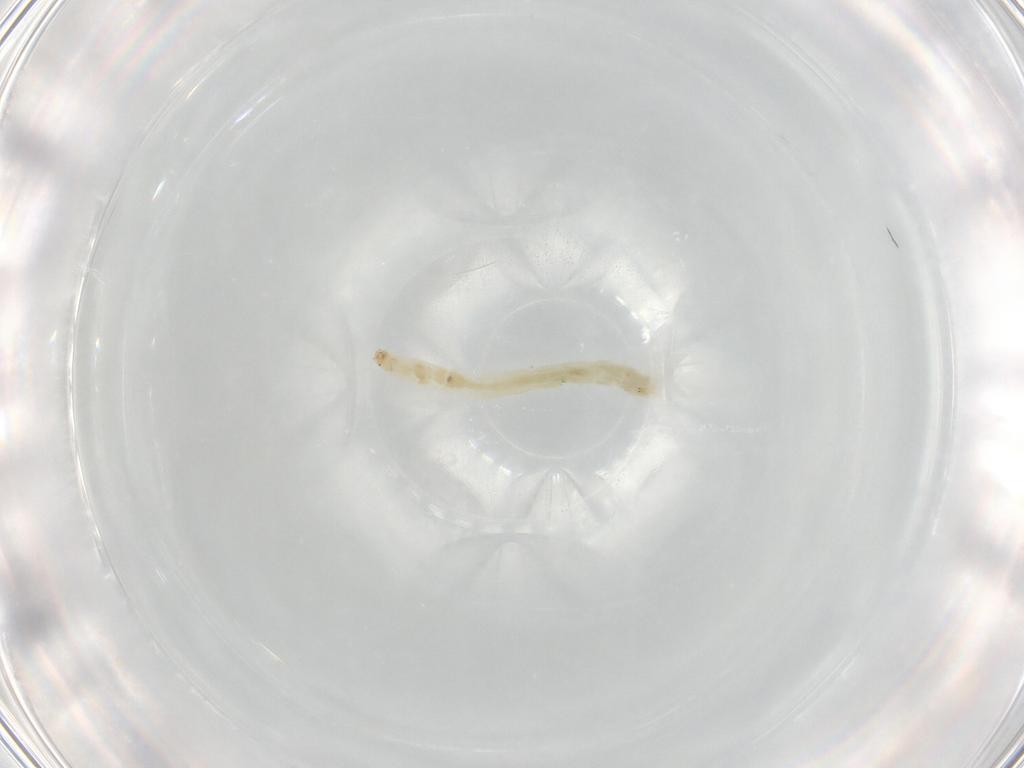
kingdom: Animalia
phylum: Arthropoda
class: Insecta
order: Diptera
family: Chironomidae
